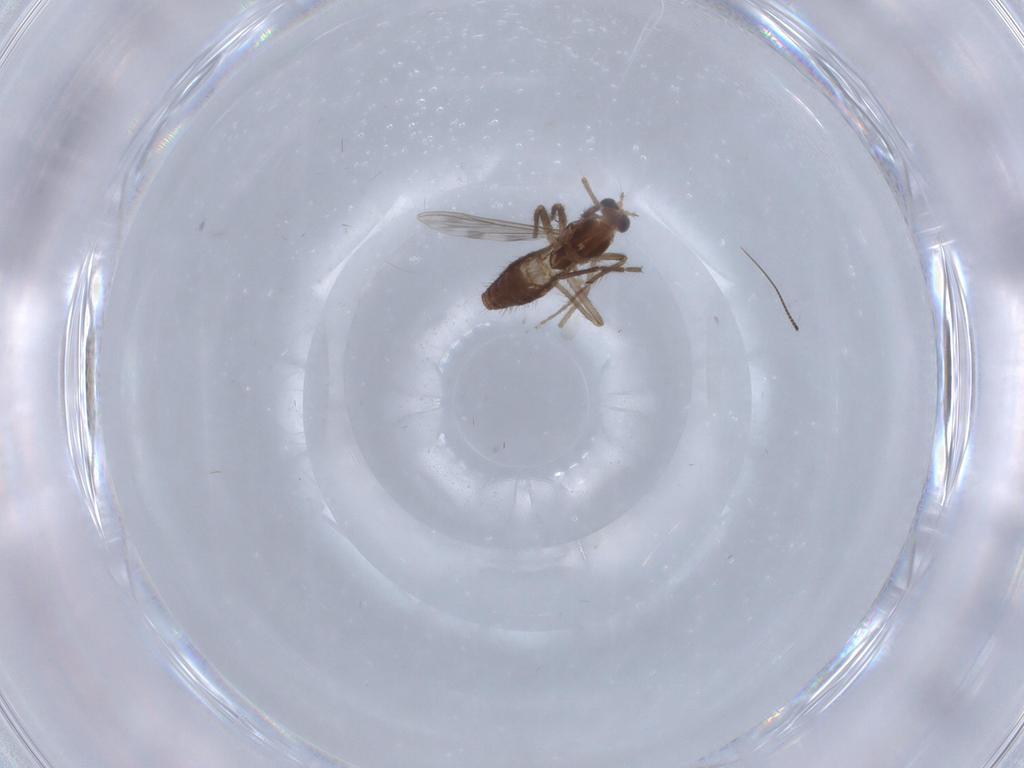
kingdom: Animalia
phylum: Arthropoda
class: Insecta
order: Diptera
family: Chironomidae
